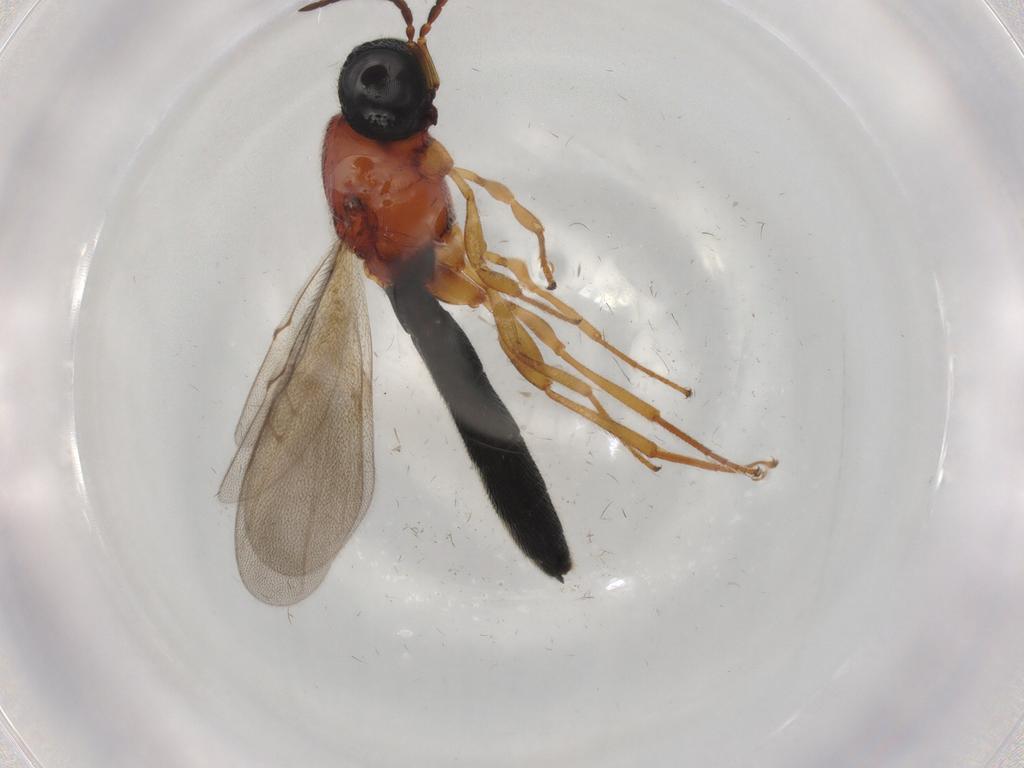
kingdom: Animalia
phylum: Arthropoda
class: Insecta
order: Hymenoptera
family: Scelionidae
